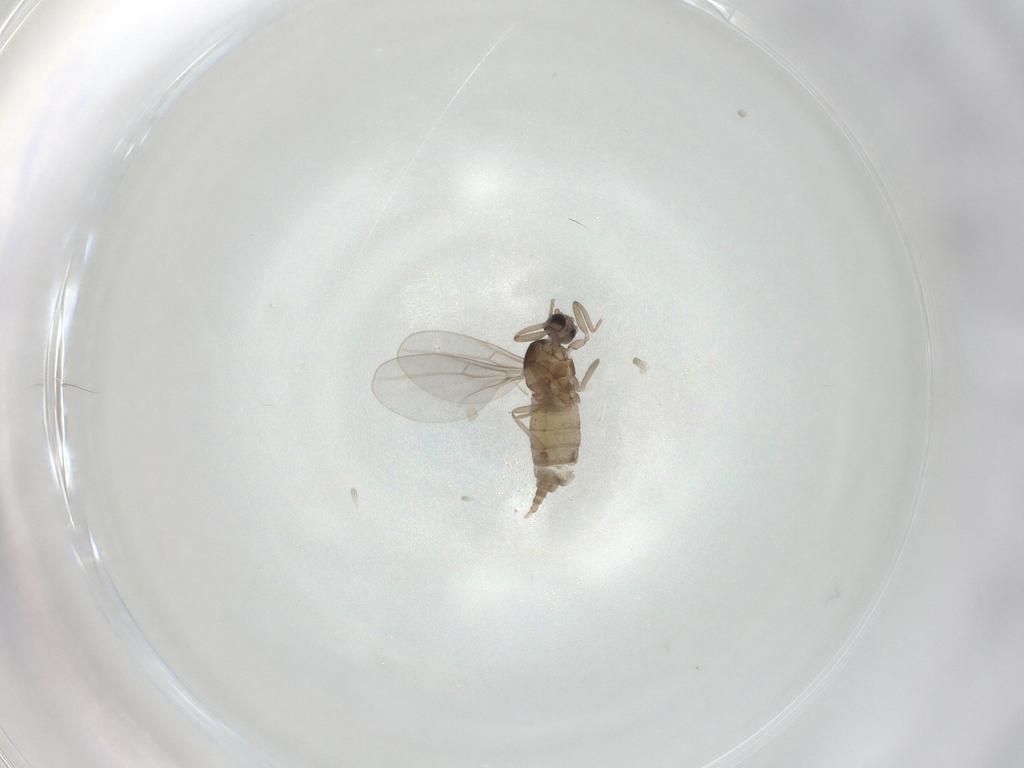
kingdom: Animalia
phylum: Arthropoda
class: Insecta
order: Diptera
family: Cecidomyiidae
